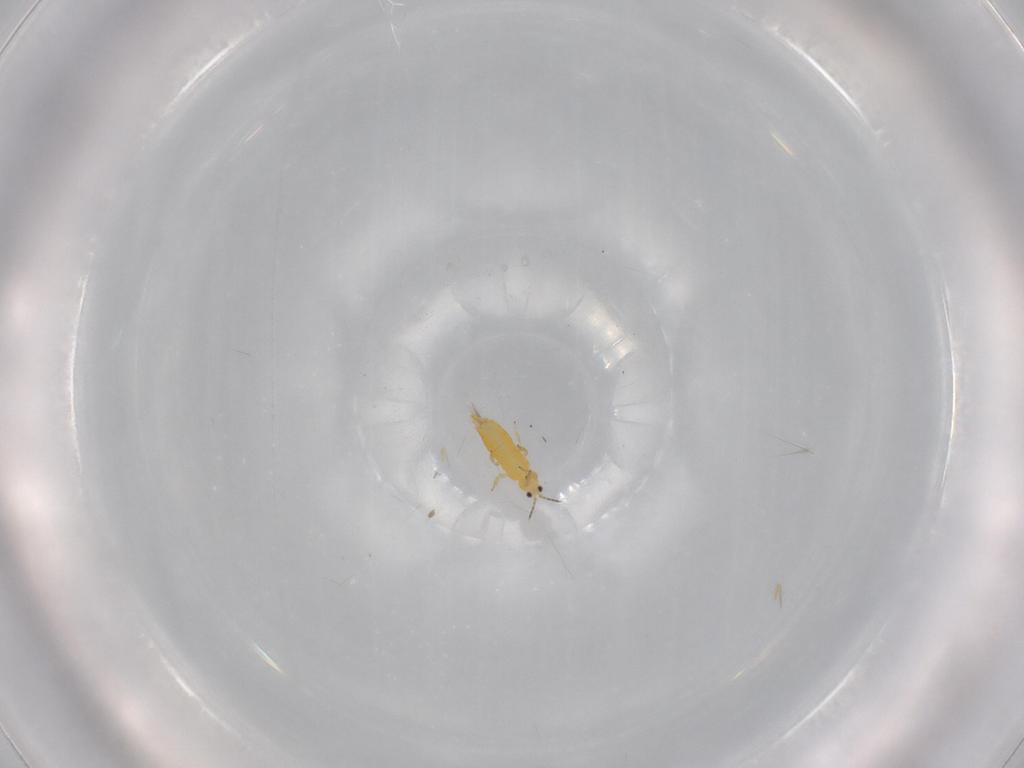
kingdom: Animalia
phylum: Arthropoda
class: Insecta
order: Thysanoptera
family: Thripidae
